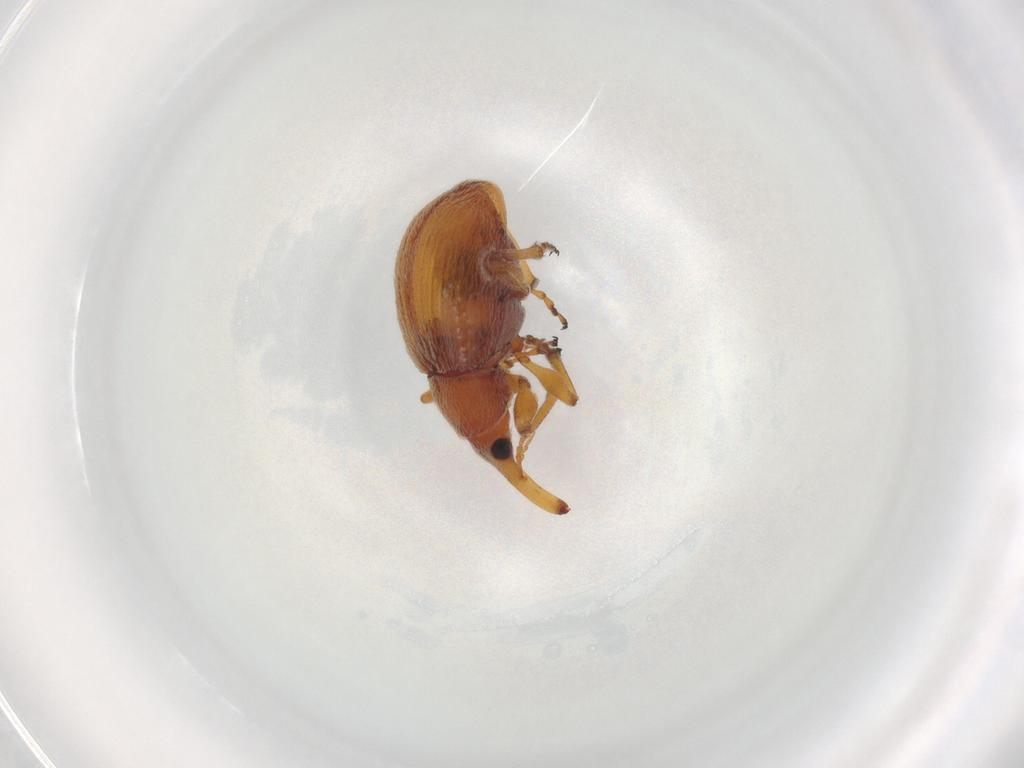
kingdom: Animalia
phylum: Arthropoda
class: Insecta
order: Coleoptera
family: Brentidae
